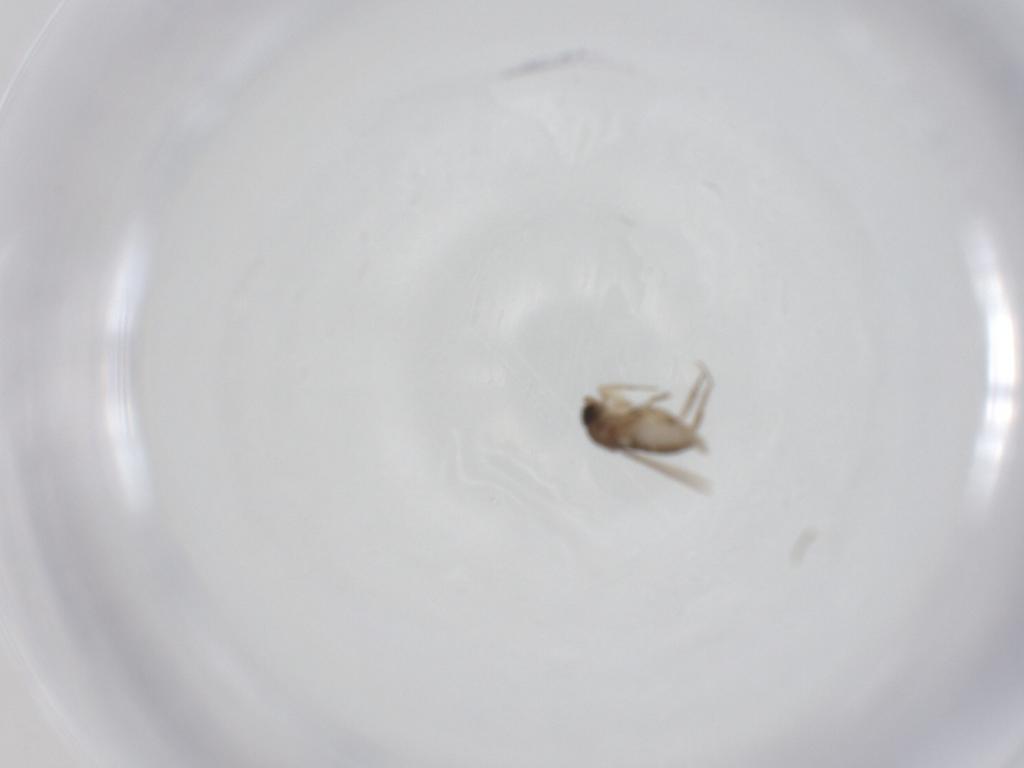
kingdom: Animalia
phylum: Arthropoda
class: Insecta
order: Diptera
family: Phoridae
